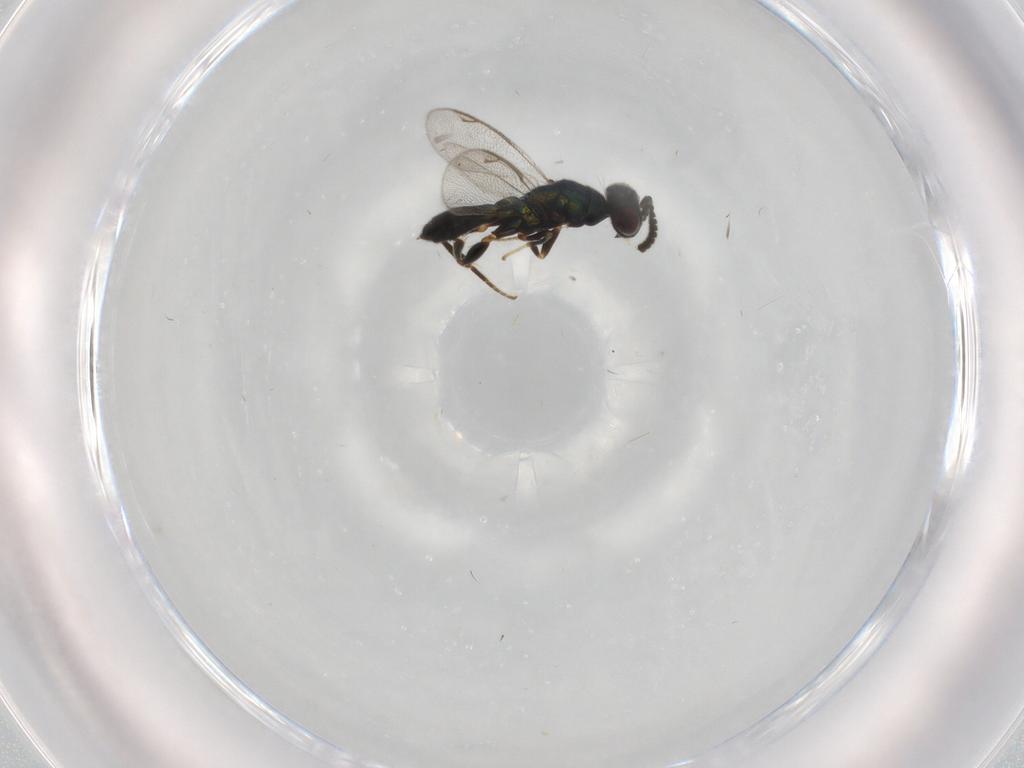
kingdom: Animalia
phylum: Arthropoda
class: Insecta
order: Hymenoptera
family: Cleonyminae
